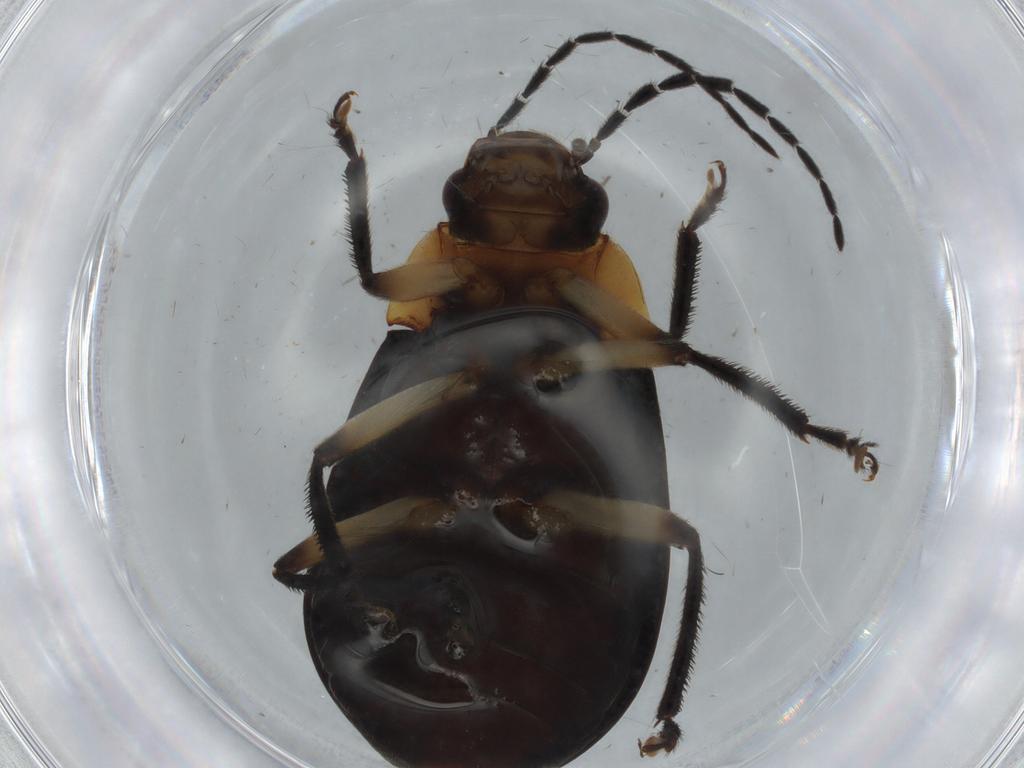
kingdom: Animalia
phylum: Arthropoda
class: Insecta
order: Coleoptera
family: Ptilodactylidae
